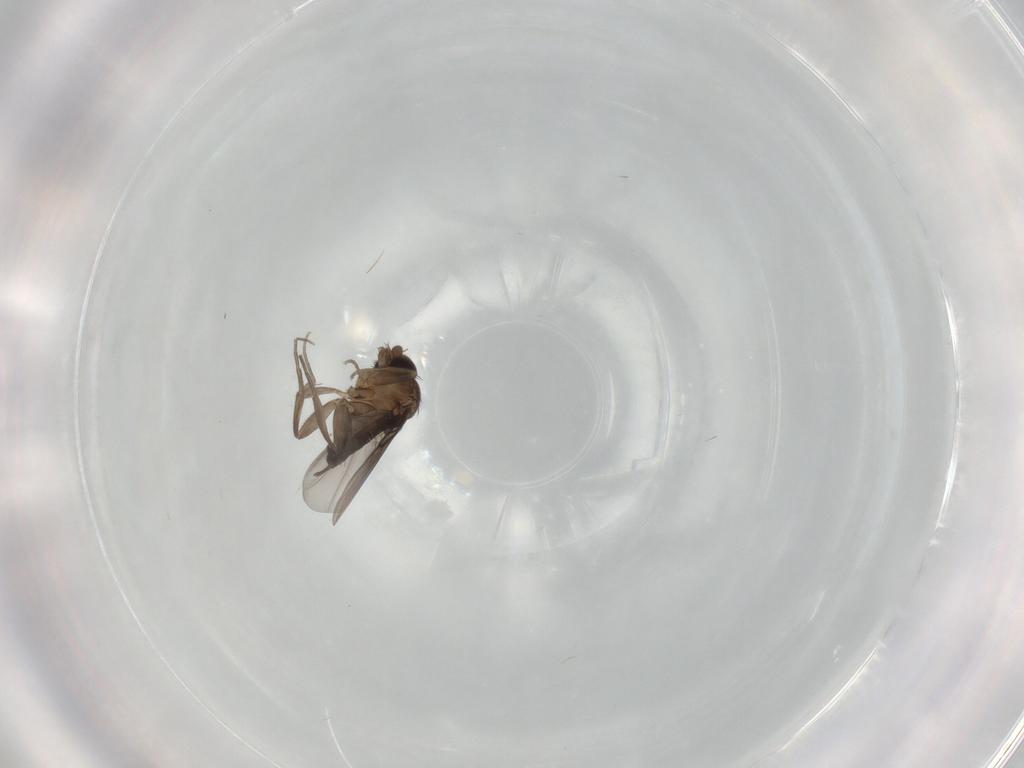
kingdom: Animalia
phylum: Arthropoda
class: Insecta
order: Diptera
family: Phoridae
